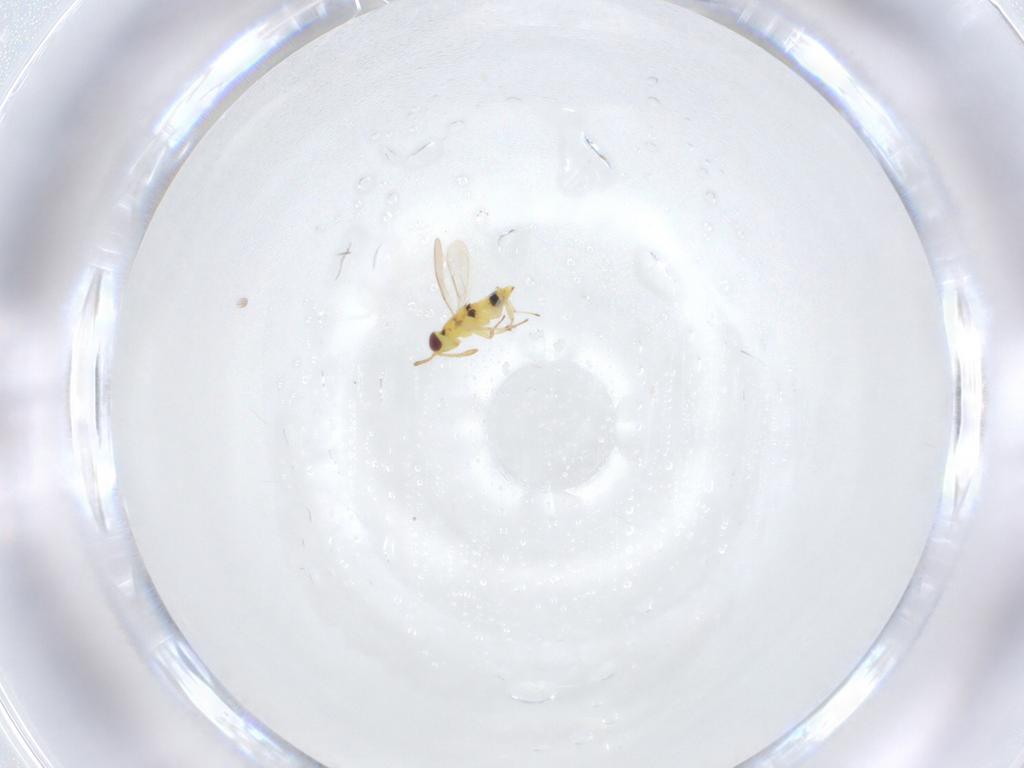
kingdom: Animalia
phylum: Arthropoda
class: Insecta
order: Hymenoptera
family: Aphelinidae
